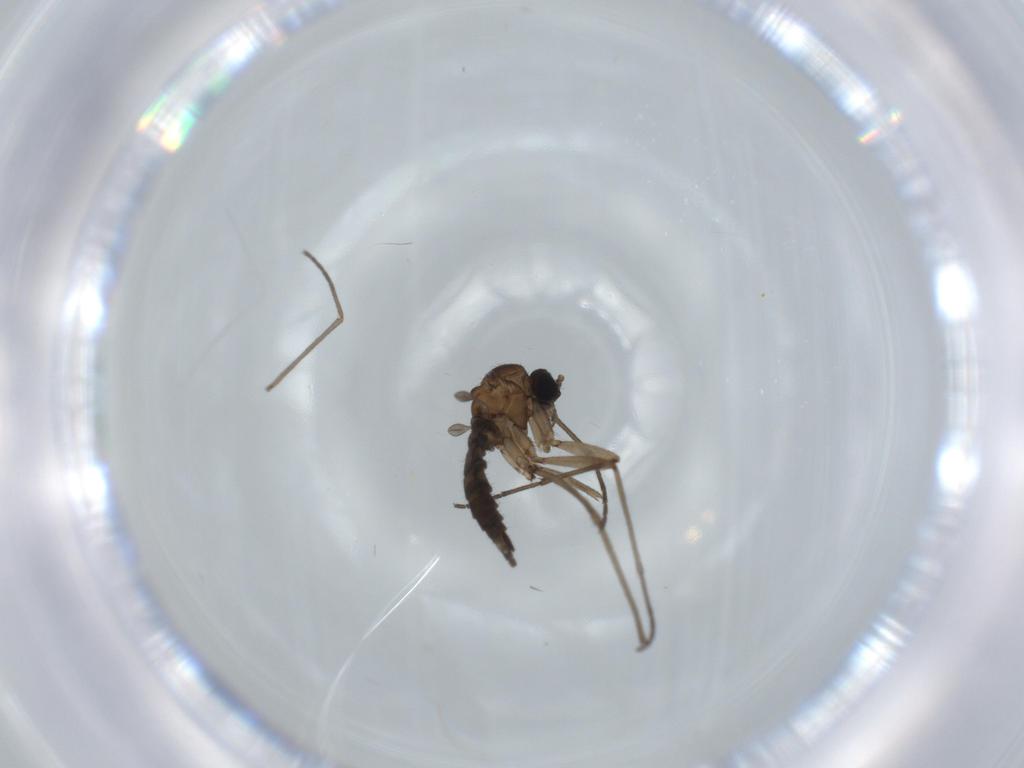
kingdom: Animalia
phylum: Arthropoda
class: Insecta
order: Diptera
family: Sciaridae
